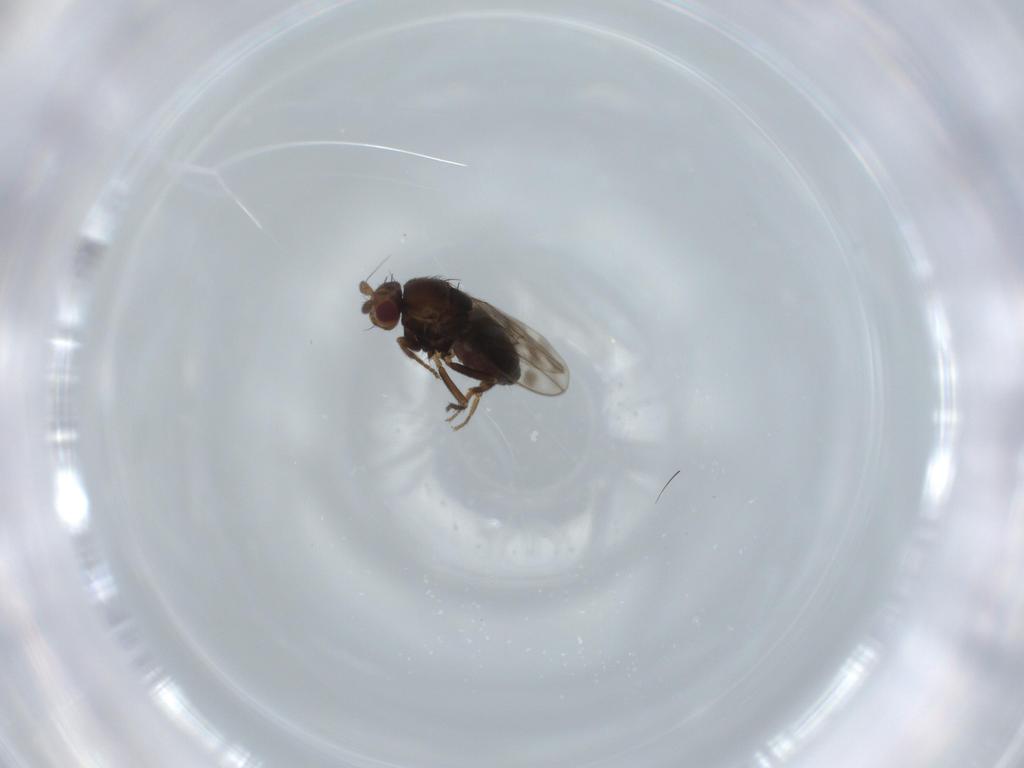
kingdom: Animalia
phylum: Arthropoda
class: Insecta
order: Diptera
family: Sphaeroceridae
